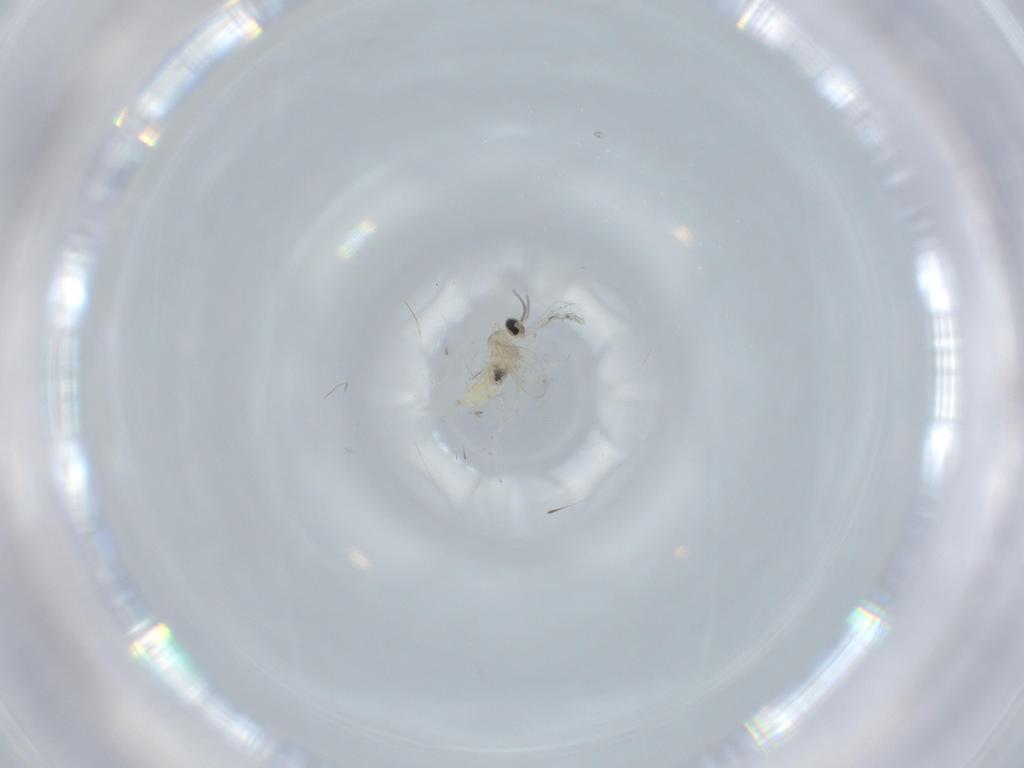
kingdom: Animalia
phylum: Arthropoda
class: Insecta
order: Diptera
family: Cecidomyiidae
